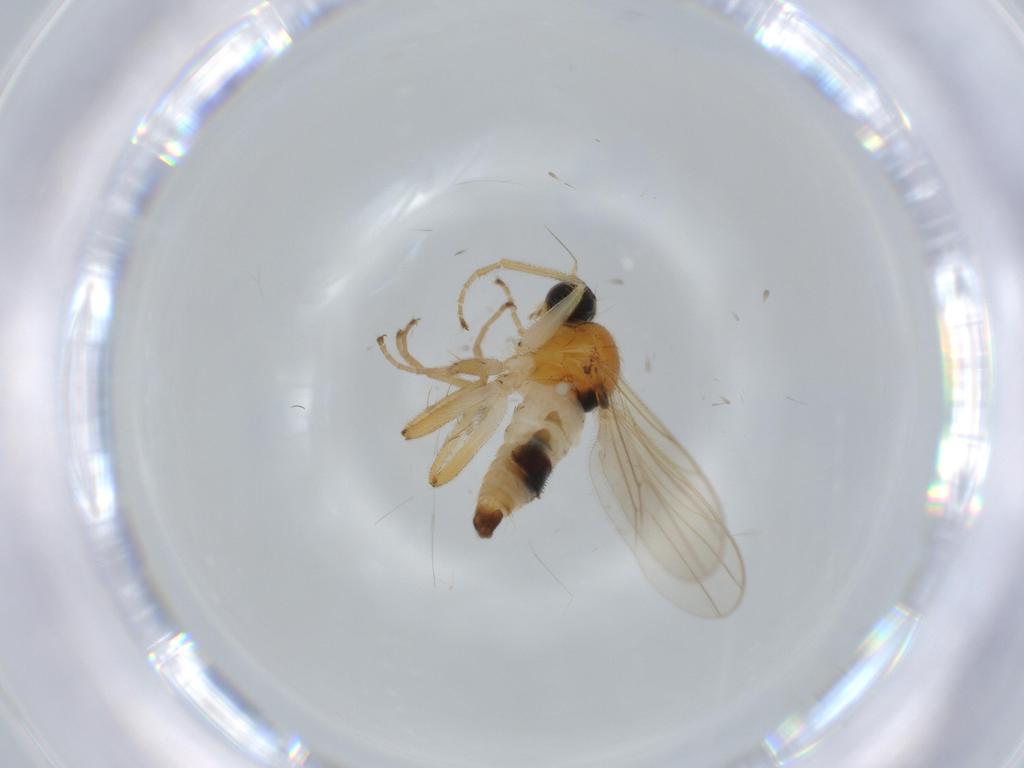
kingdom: Animalia
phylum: Arthropoda
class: Insecta
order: Diptera
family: Hybotidae
